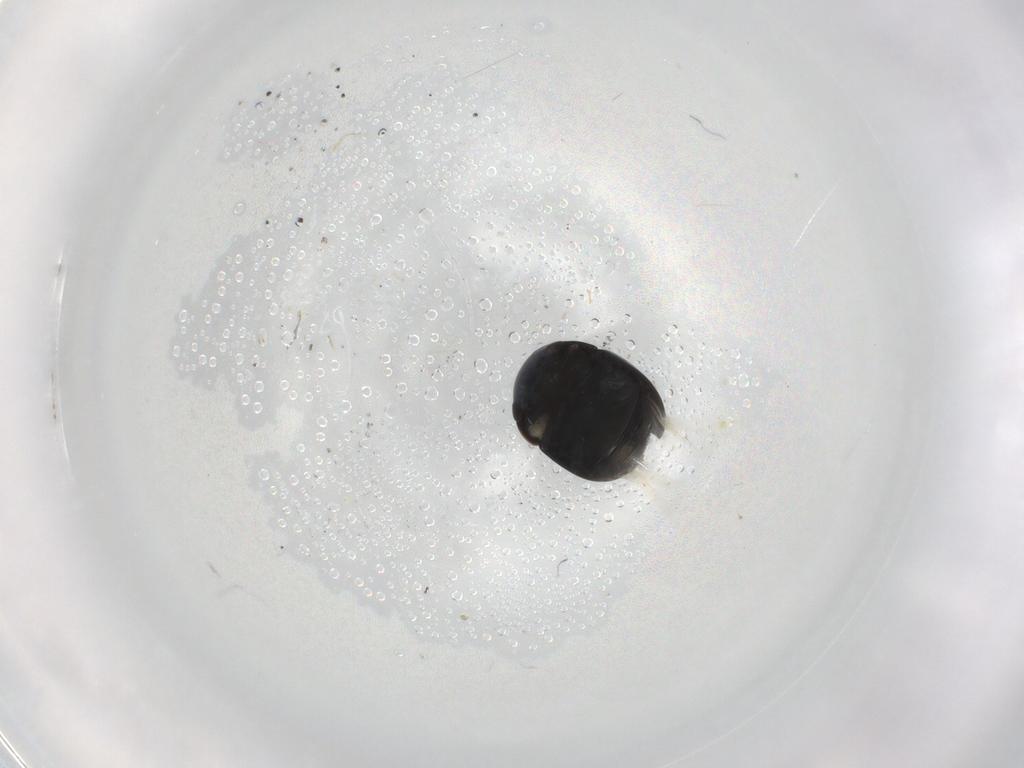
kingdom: Animalia
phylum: Arthropoda
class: Insecta
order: Coleoptera
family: Cybocephalidae
